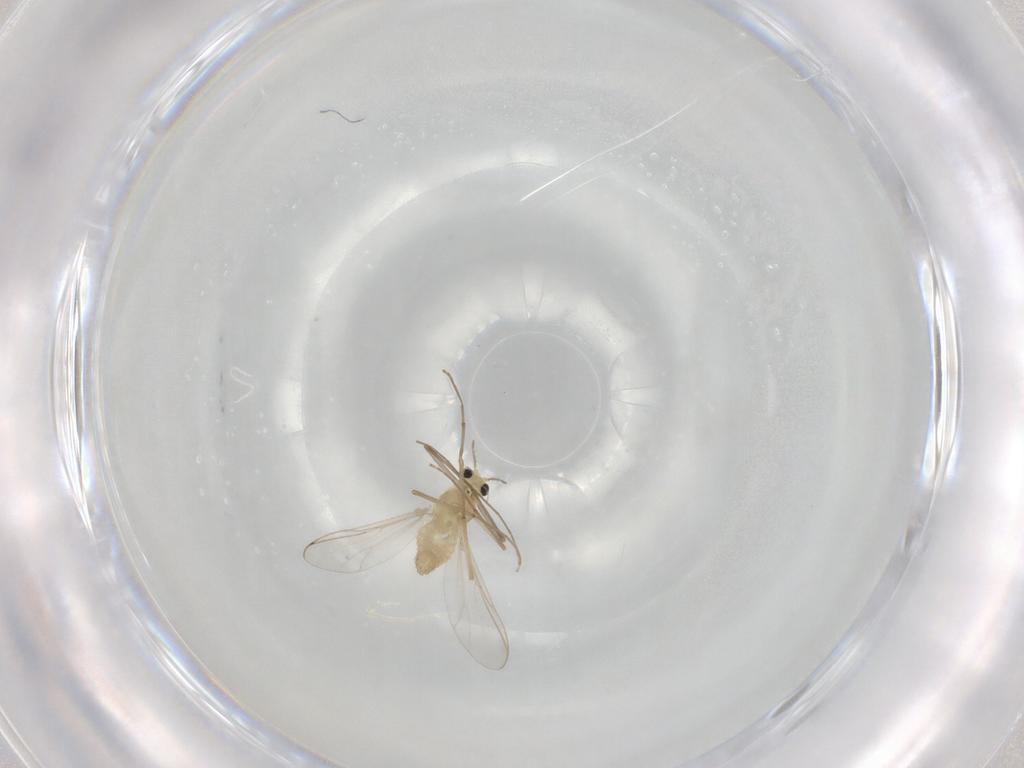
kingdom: Animalia
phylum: Arthropoda
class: Insecta
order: Diptera
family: Chironomidae
